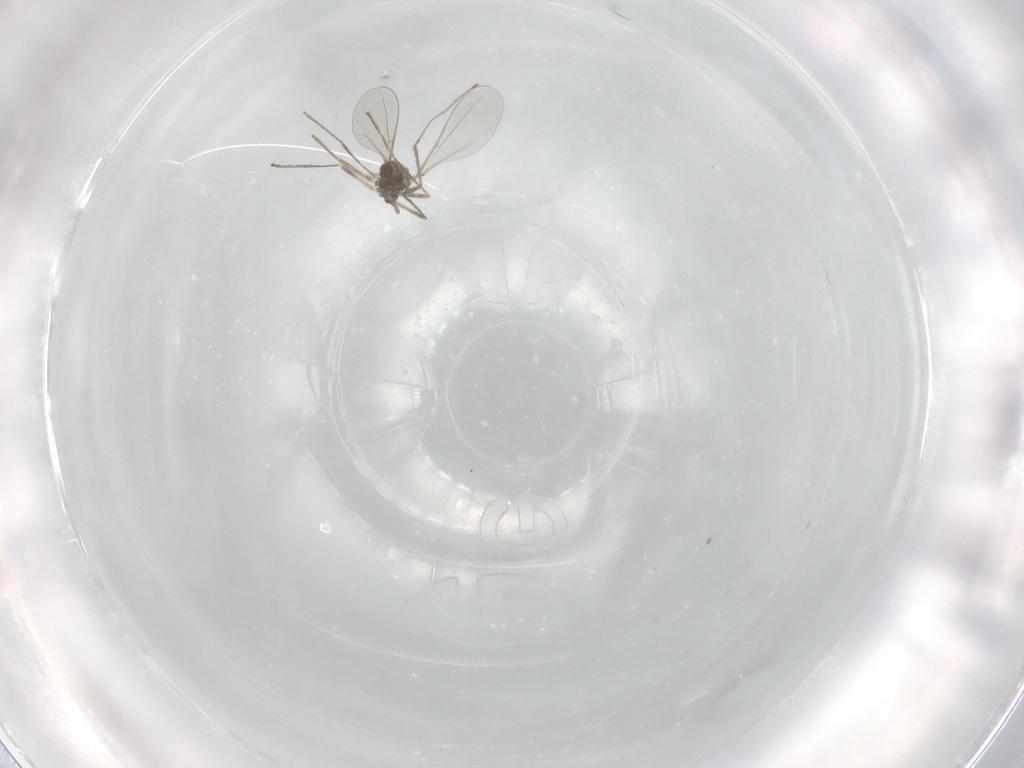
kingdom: Animalia
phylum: Arthropoda
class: Insecta
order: Diptera
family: Cecidomyiidae
